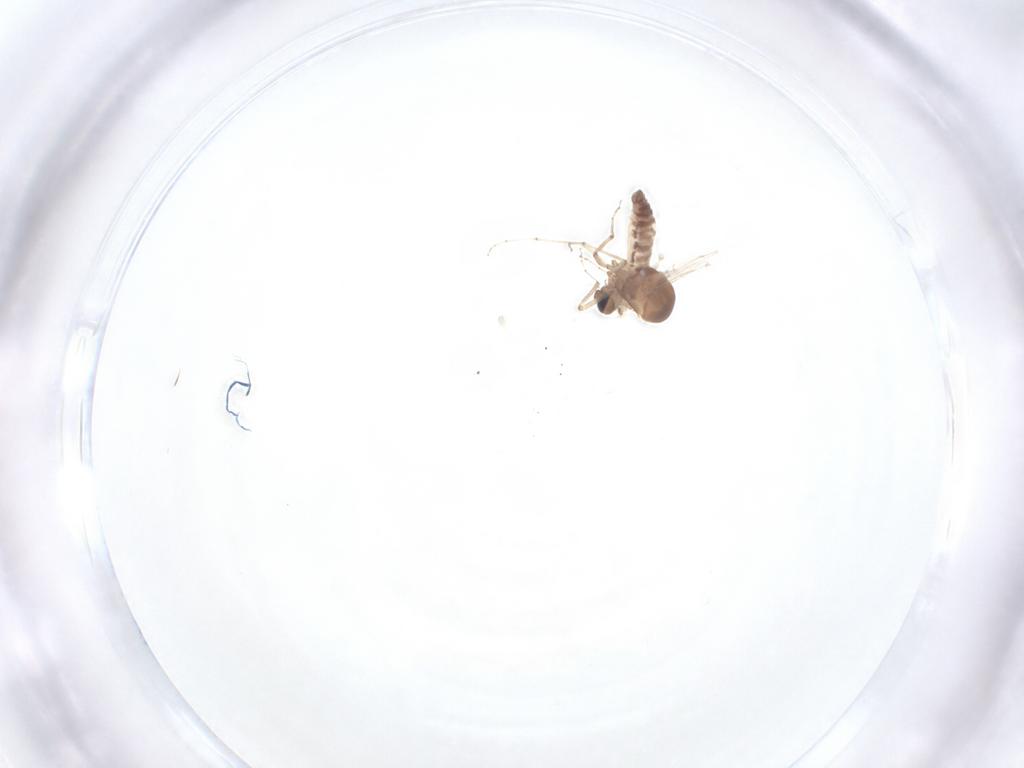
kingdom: Animalia
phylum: Arthropoda
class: Insecta
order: Diptera
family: Ceratopogonidae
